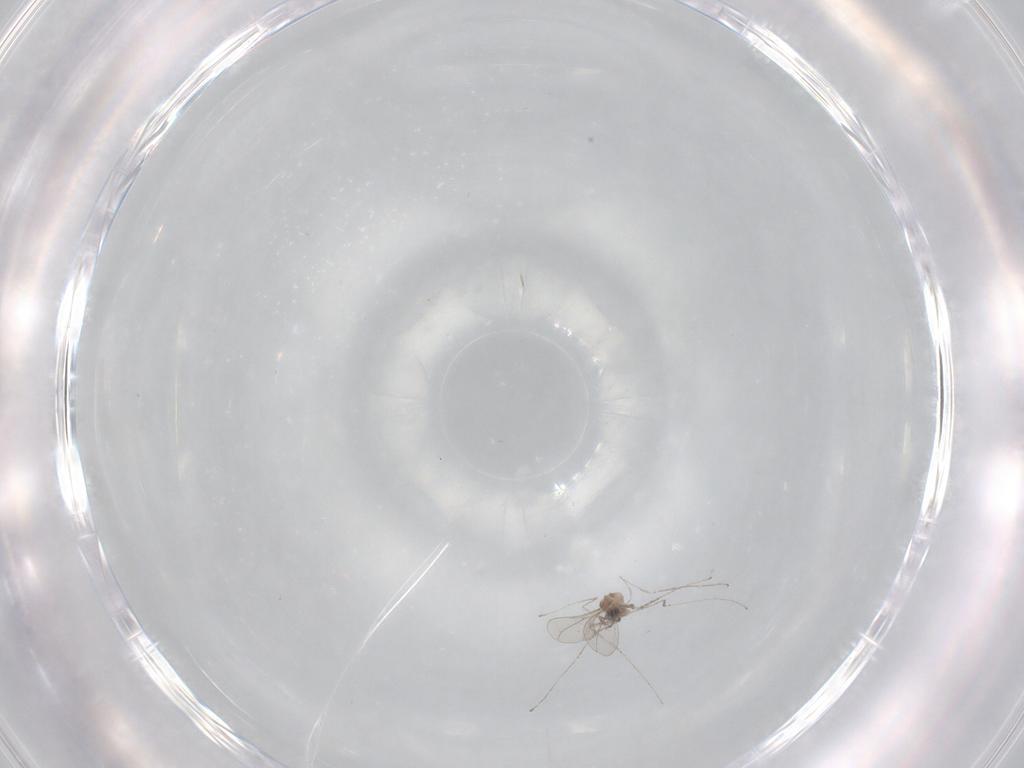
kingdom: Animalia
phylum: Arthropoda
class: Insecta
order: Diptera
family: Cecidomyiidae
